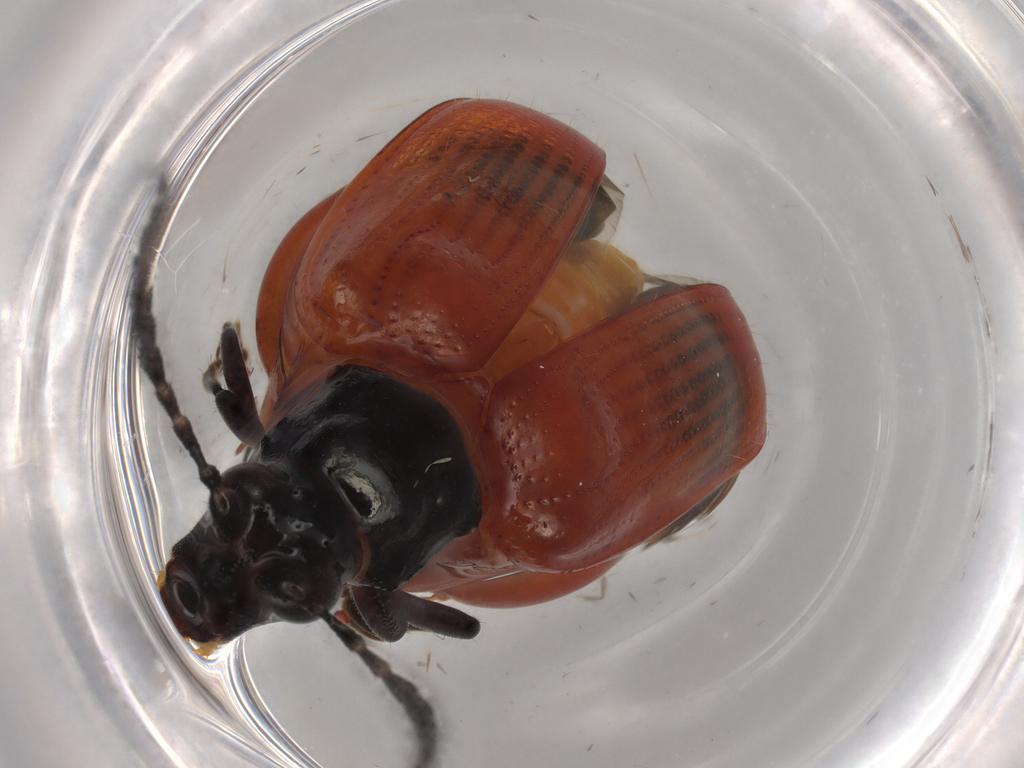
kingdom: Animalia
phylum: Arthropoda
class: Insecta
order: Coleoptera
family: Chrysomelidae
